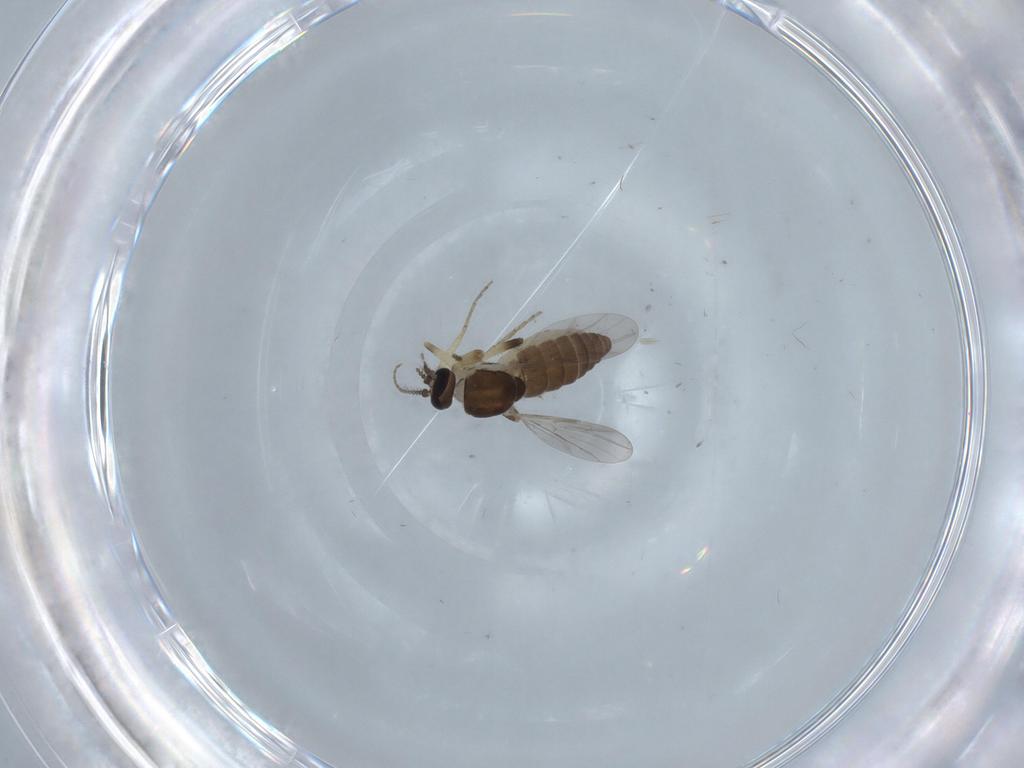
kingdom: Animalia
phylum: Arthropoda
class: Insecta
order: Diptera
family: Ceratopogonidae
